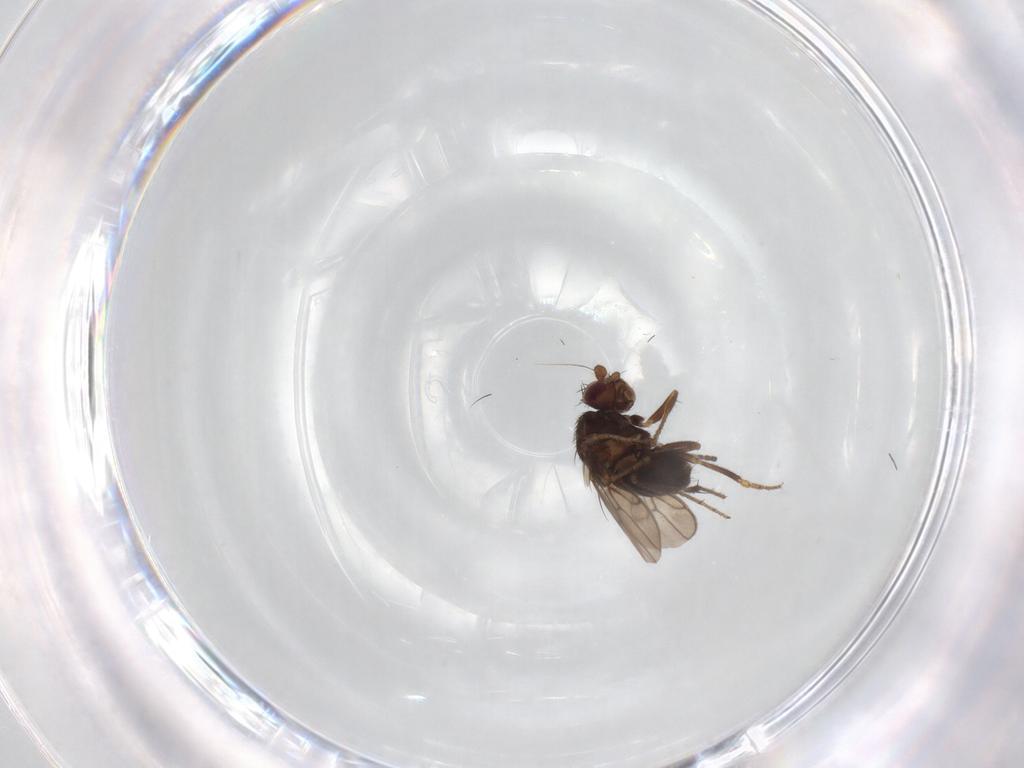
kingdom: Animalia
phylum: Arthropoda
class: Insecta
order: Diptera
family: Sphaeroceridae
